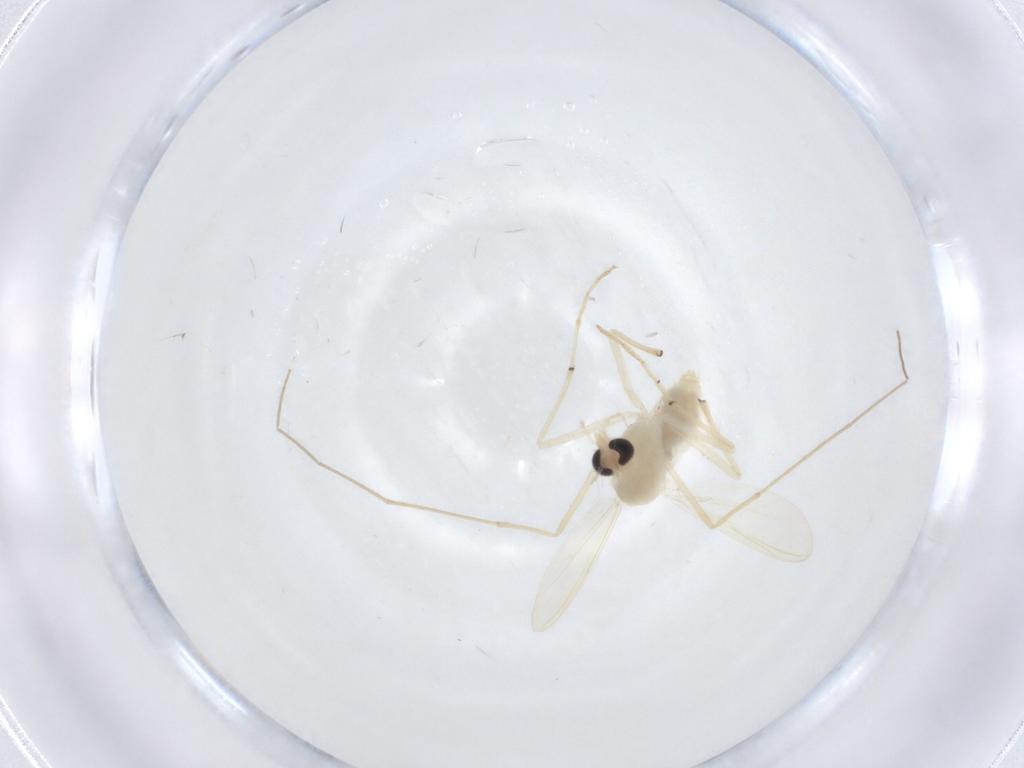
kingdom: Animalia
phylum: Arthropoda
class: Insecta
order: Diptera
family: Chironomidae
